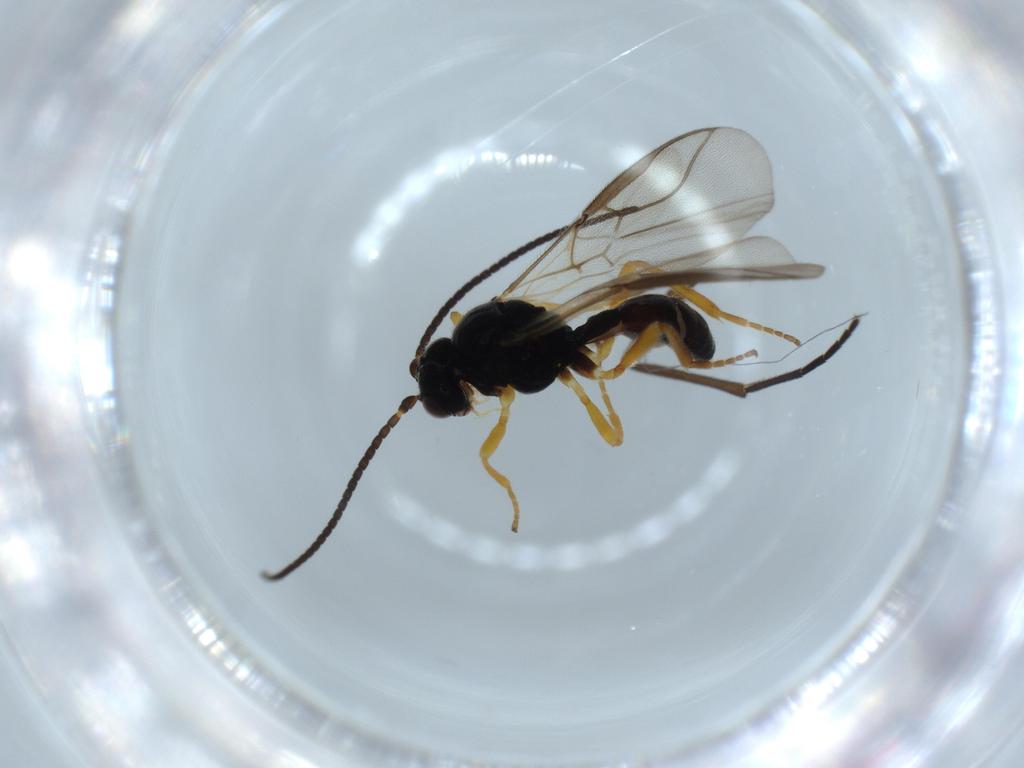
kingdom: Animalia
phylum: Arthropoda
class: Insecta
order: Hymenoptera
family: Braconidae
